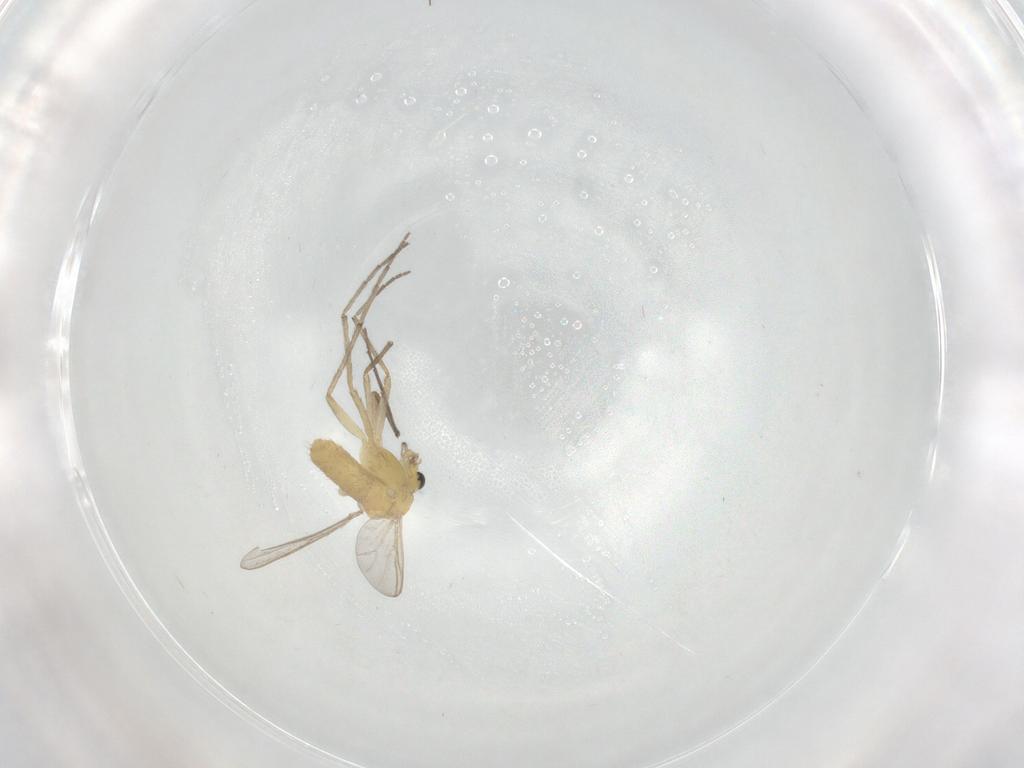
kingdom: Animalia
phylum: Arthropoda
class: Insecta
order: Diptera
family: Chironomidae
